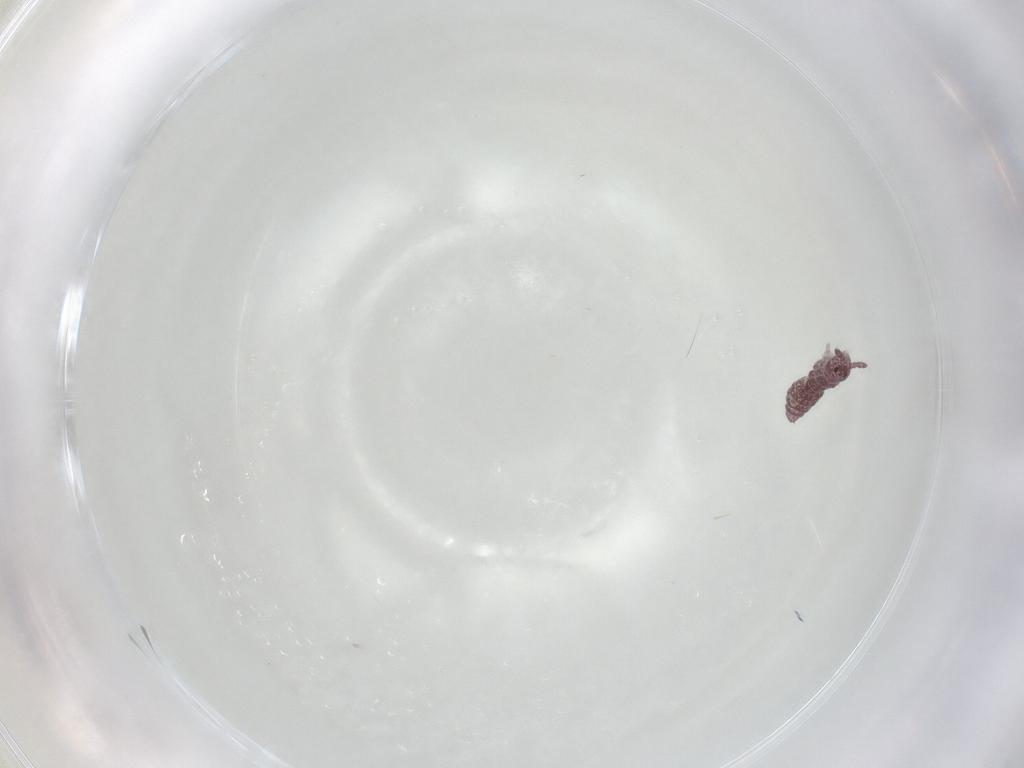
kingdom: Animalia
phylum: Arthropoda
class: Collembola
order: Poduromorpha
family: Hypogastruridae
